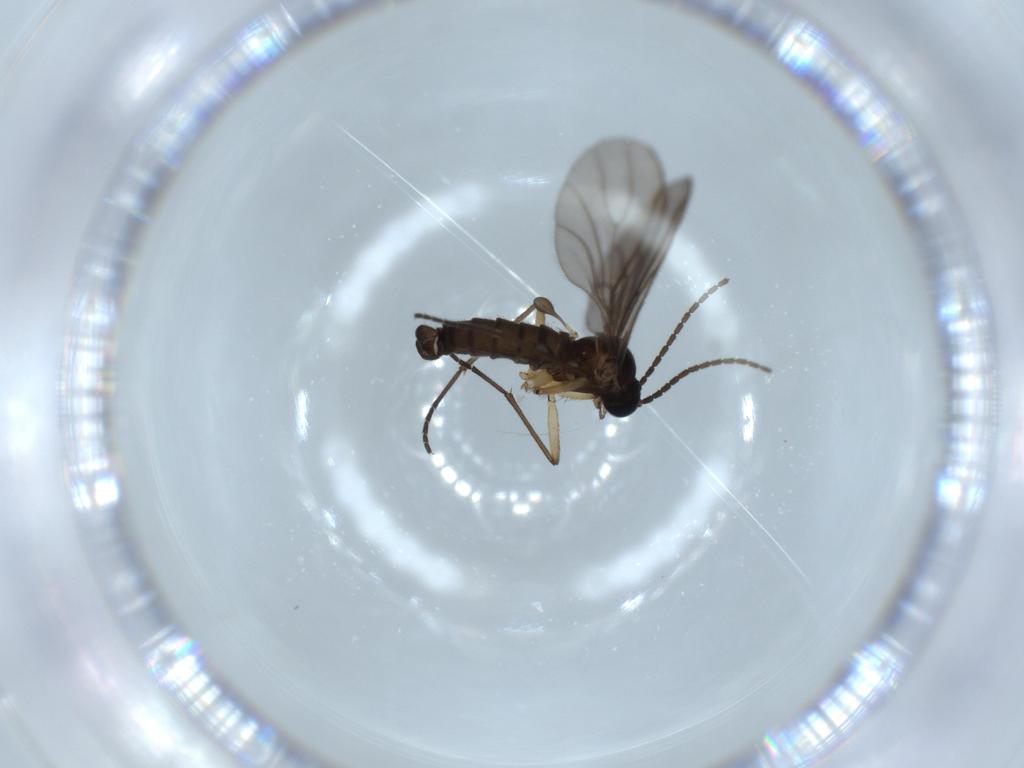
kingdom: Animalia
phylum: Arthropoda
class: Insecta
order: Diptera
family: Sciaridae
